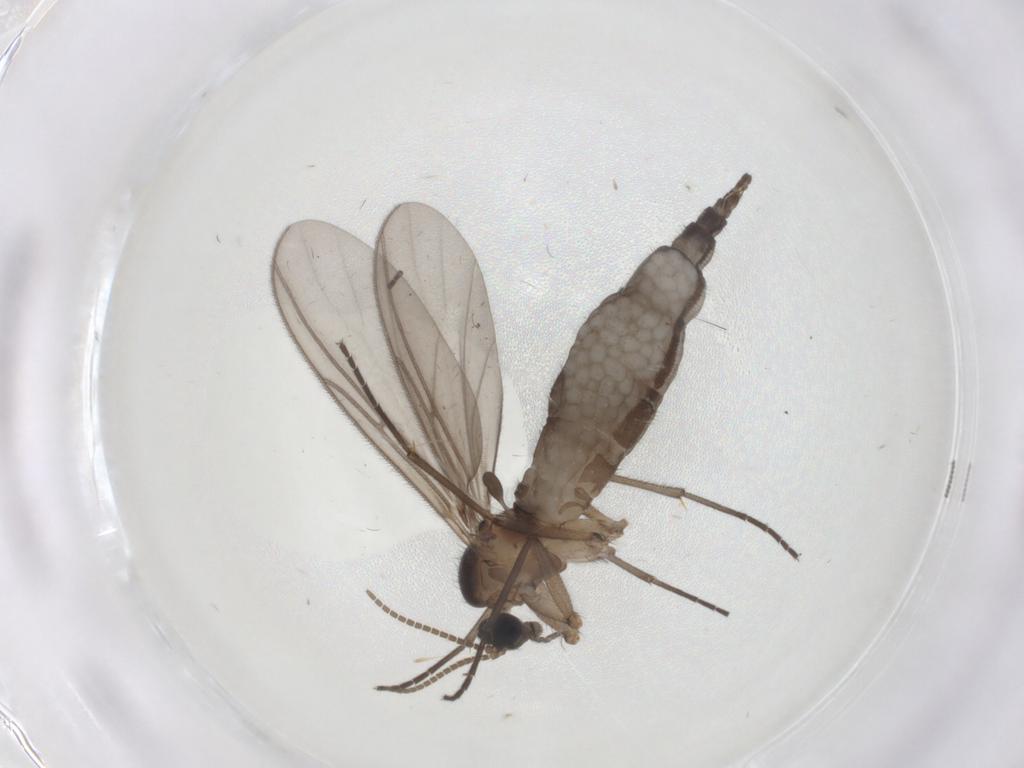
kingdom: Animalia
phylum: Arthropoda
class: Insecta
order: Diptera
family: Cecidomyiidae
